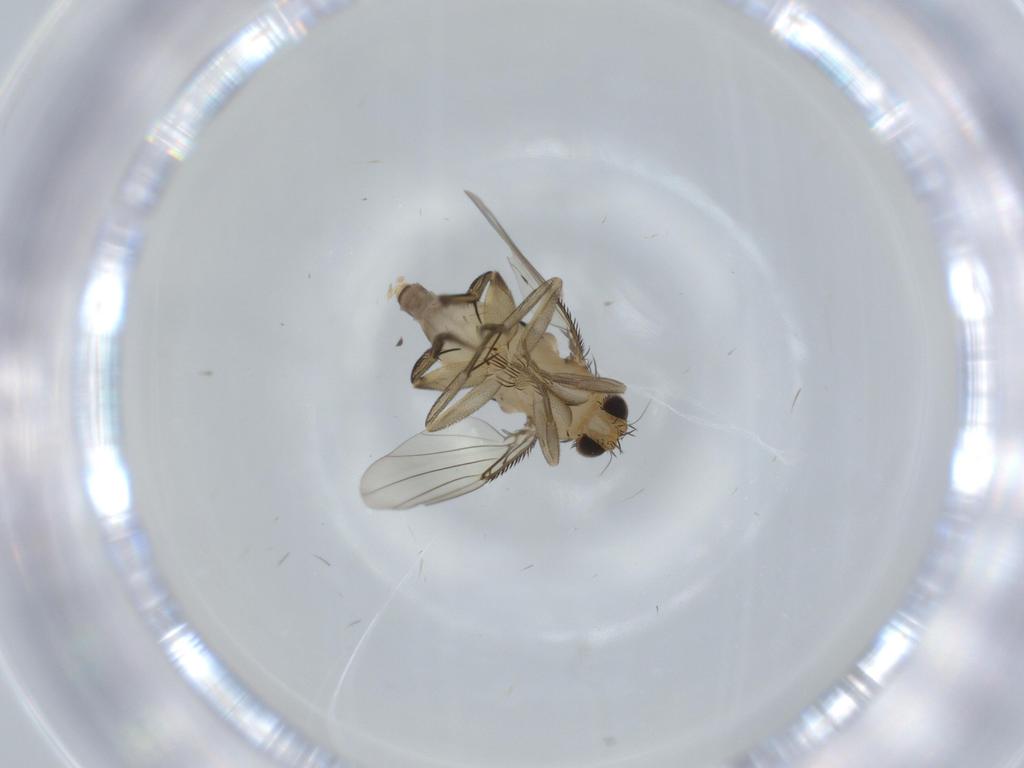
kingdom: Animalia
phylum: Arthropoda
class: Insecta
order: Diptera
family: Phoridae
